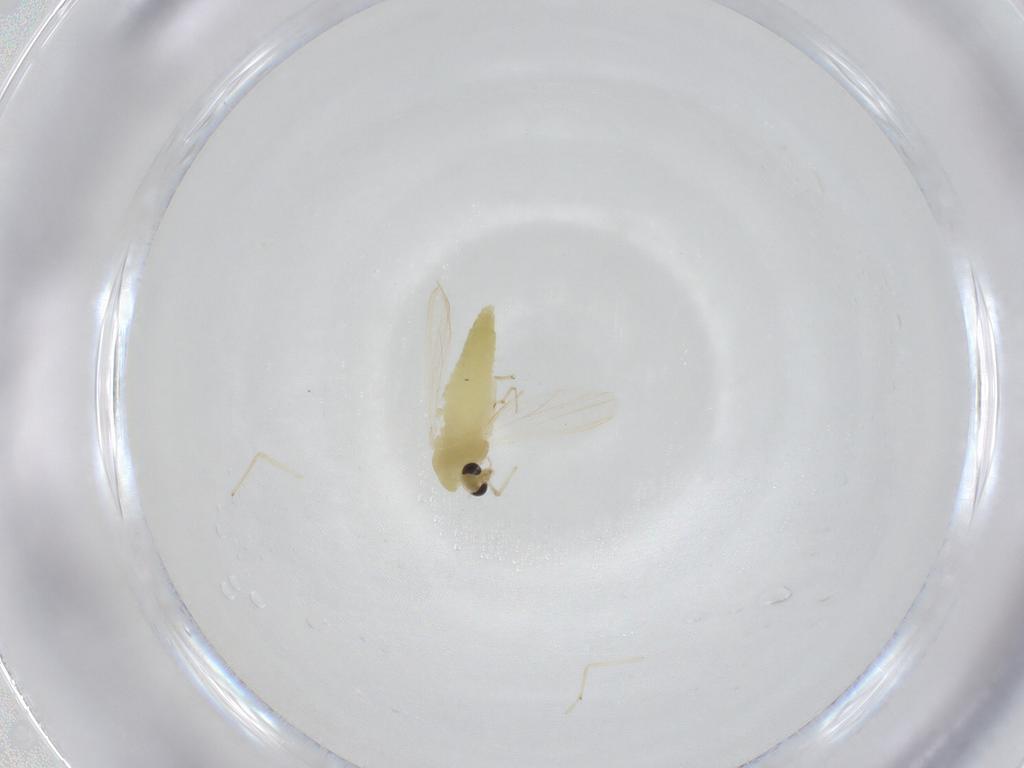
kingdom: Animalia
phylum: Arthropoda
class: Insecta
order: Diptera
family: Chironomidae
